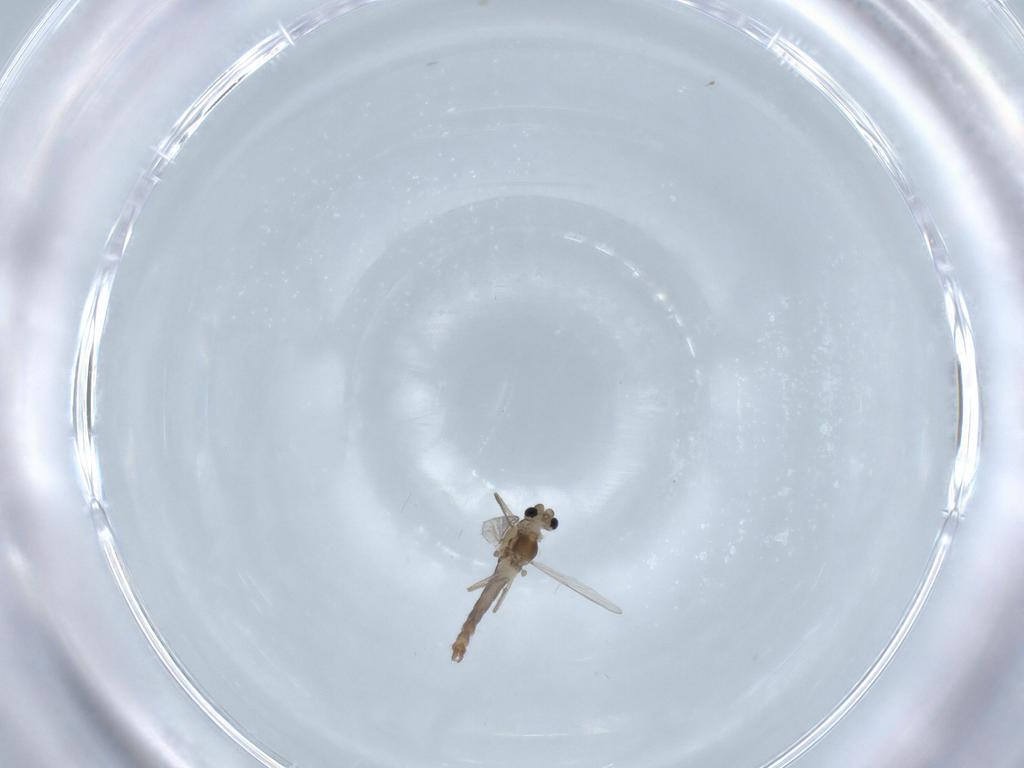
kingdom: Animalia
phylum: Arthropoda
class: Insecta
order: Diptera
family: Chironomidae
